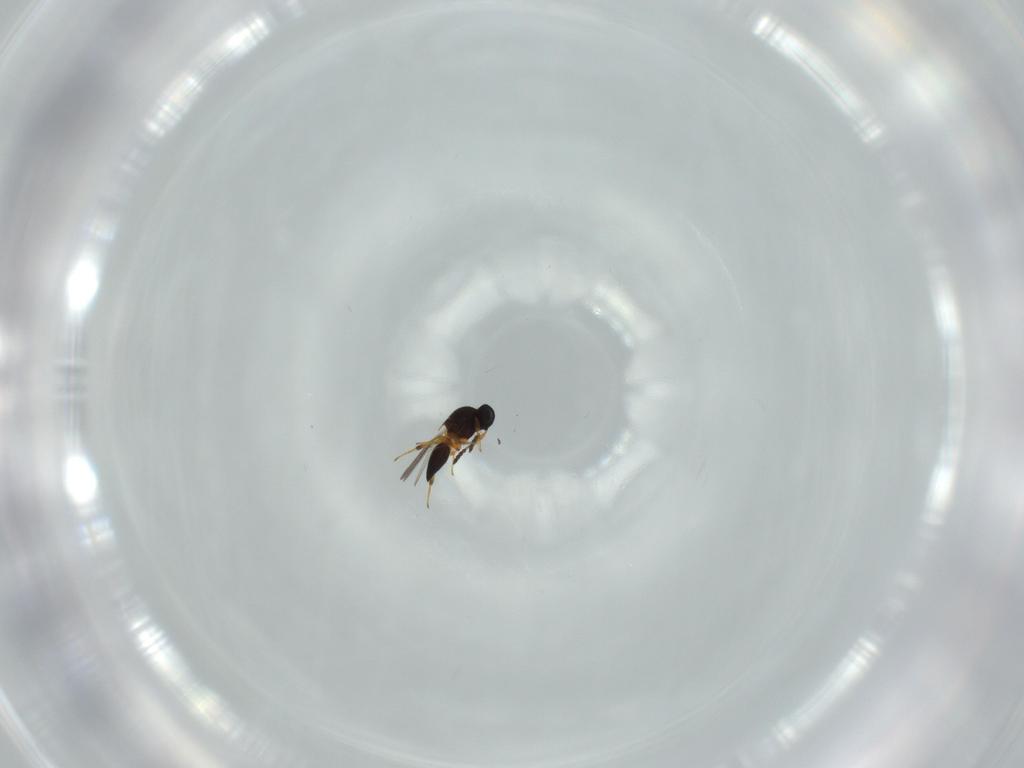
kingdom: Animalia
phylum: Arthropoda
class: Insecta
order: Hymenoptera
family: Platygastridae
